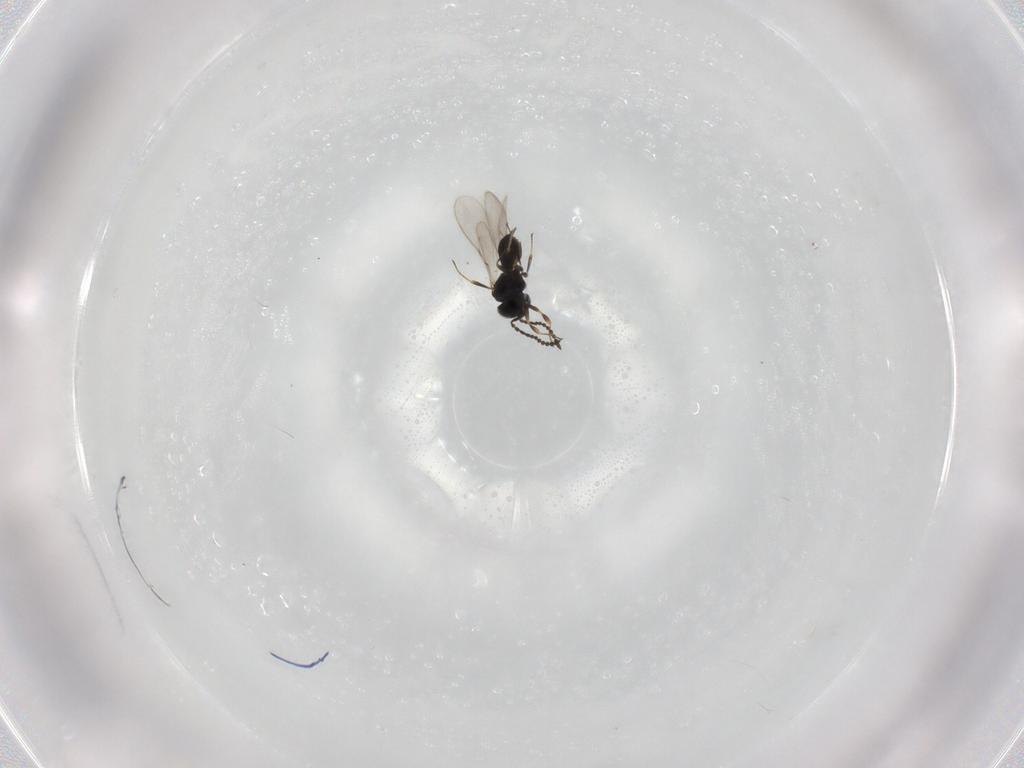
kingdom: Animalia
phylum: Arthropoda
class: Insecta
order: Hymenoptera
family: Scelionidae
